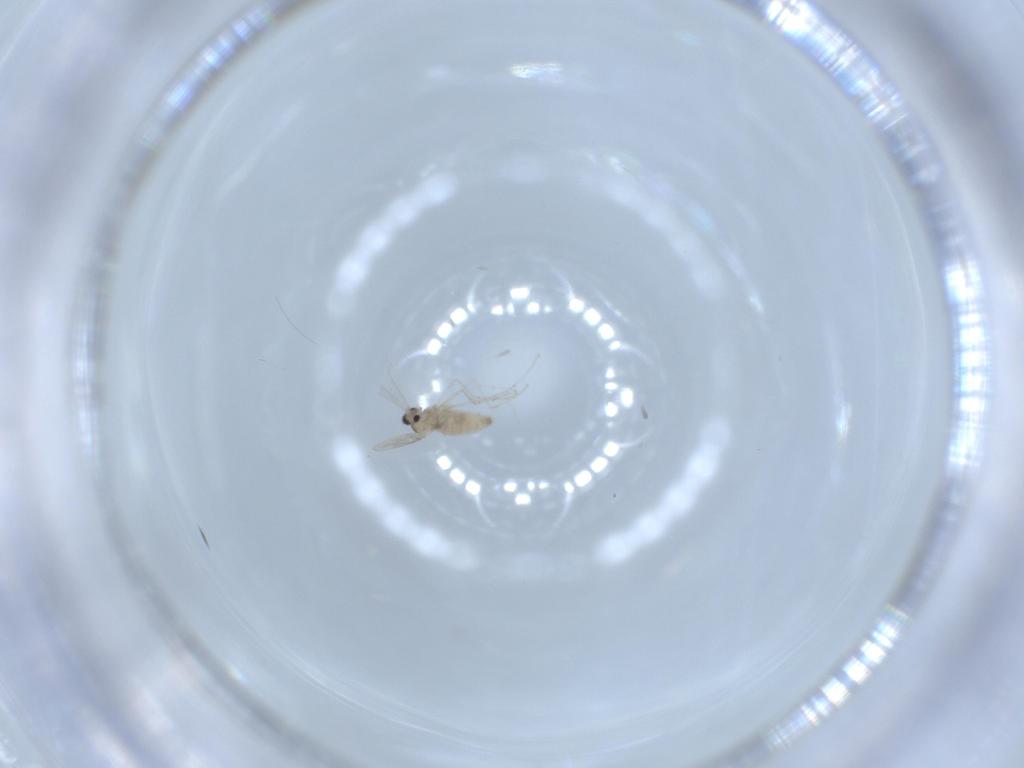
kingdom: Animalia
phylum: Arthropoda
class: Insecta
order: Diptera
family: Cecidomyiidae
